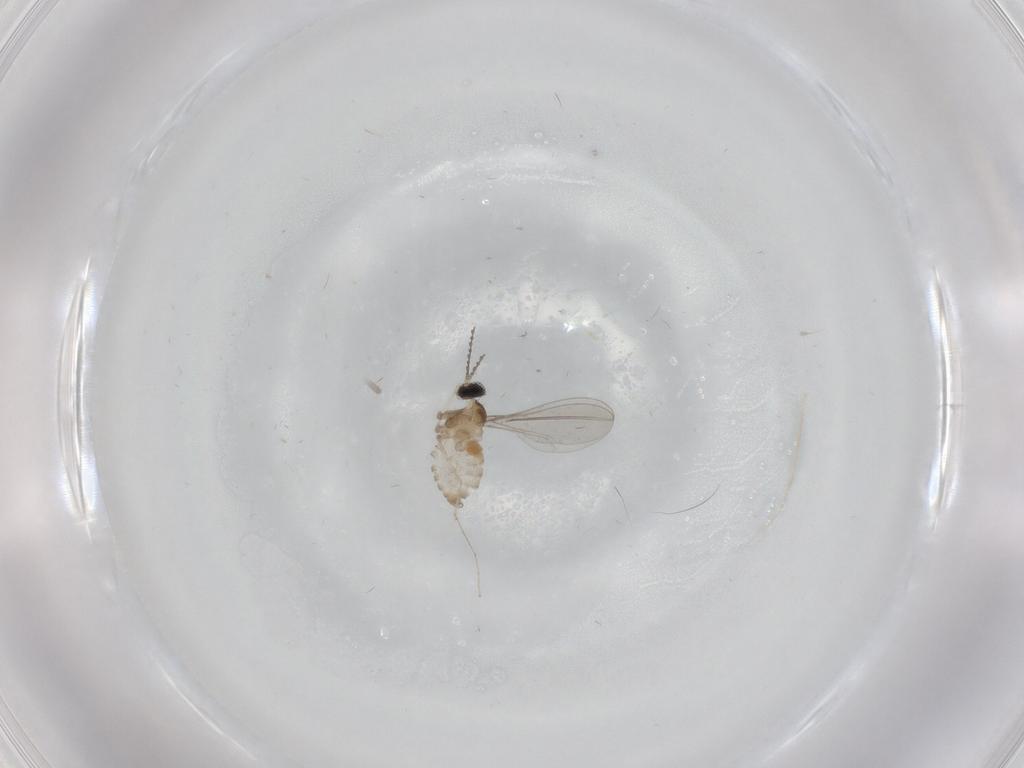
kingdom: Animalia
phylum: Arthropoda
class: Insecta
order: Diptera
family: Cecidomyiidae
